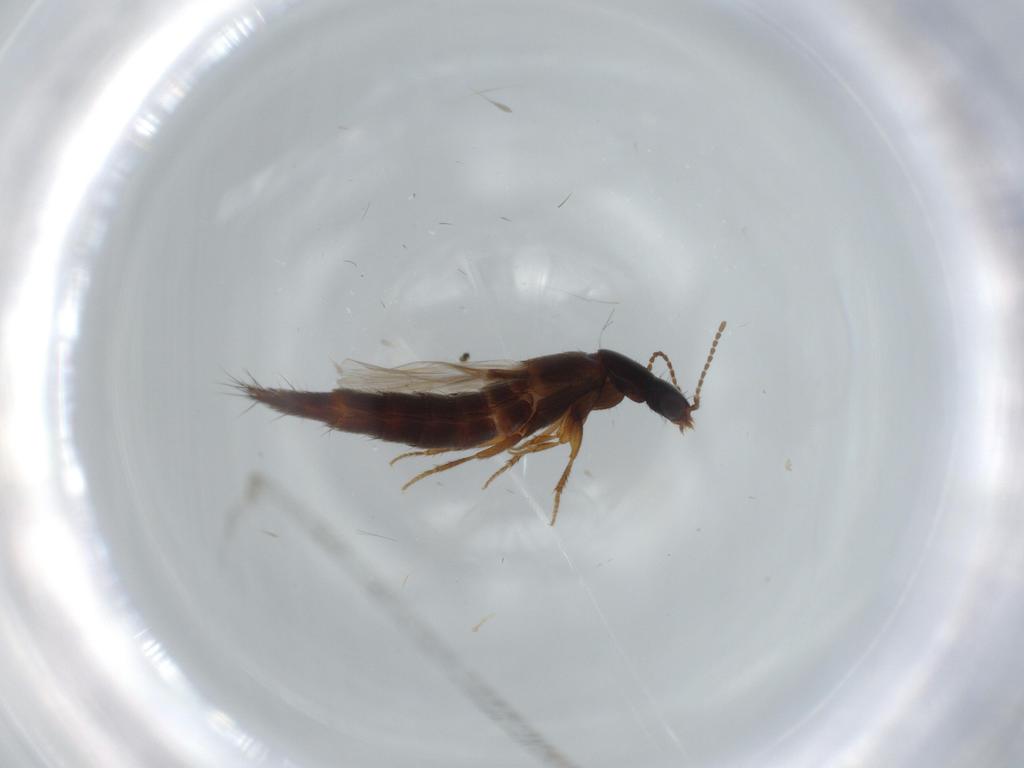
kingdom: Animalia
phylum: Arthropoda
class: Insecta
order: Coleoptera
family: Staphylinidae
